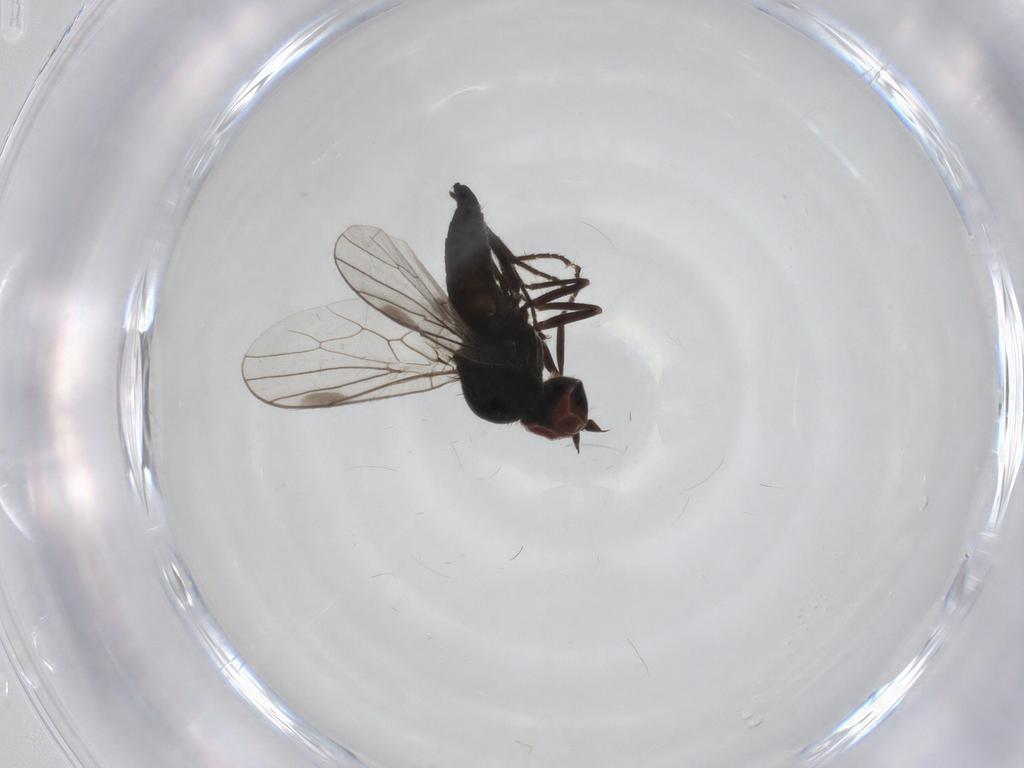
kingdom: Animalia
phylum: Arthropoda
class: Insecta
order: Diptera
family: Hybotidae
